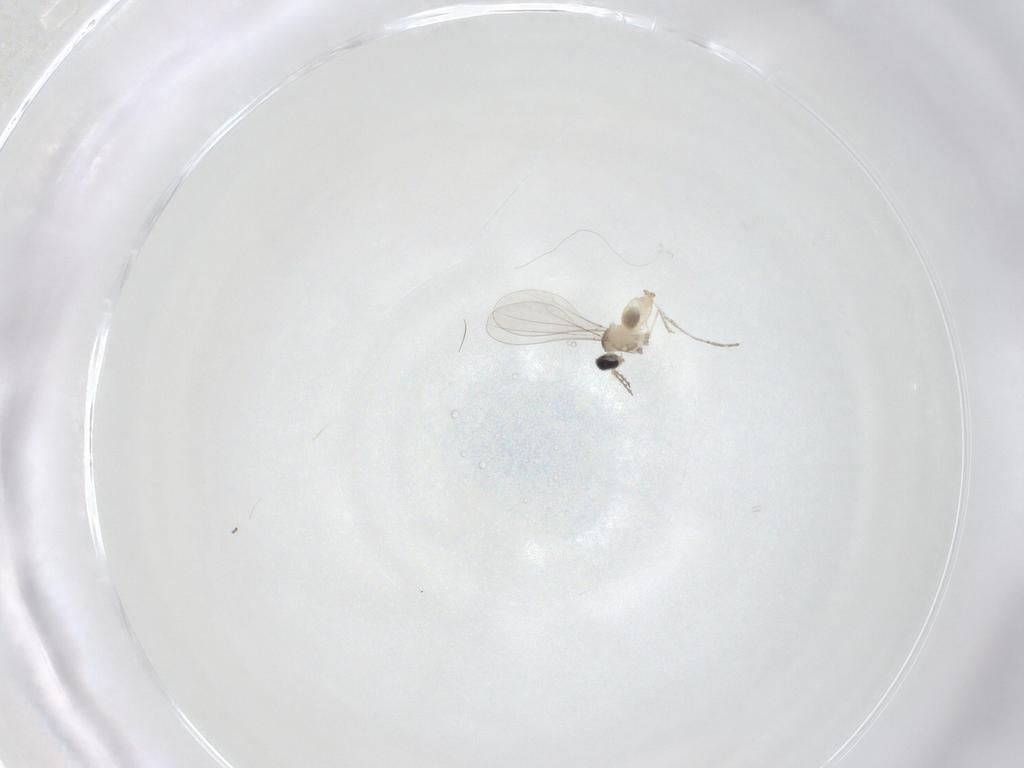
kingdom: Animalia
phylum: Arthropoda
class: Insecta
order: Diptera
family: Cecidomyiidae
